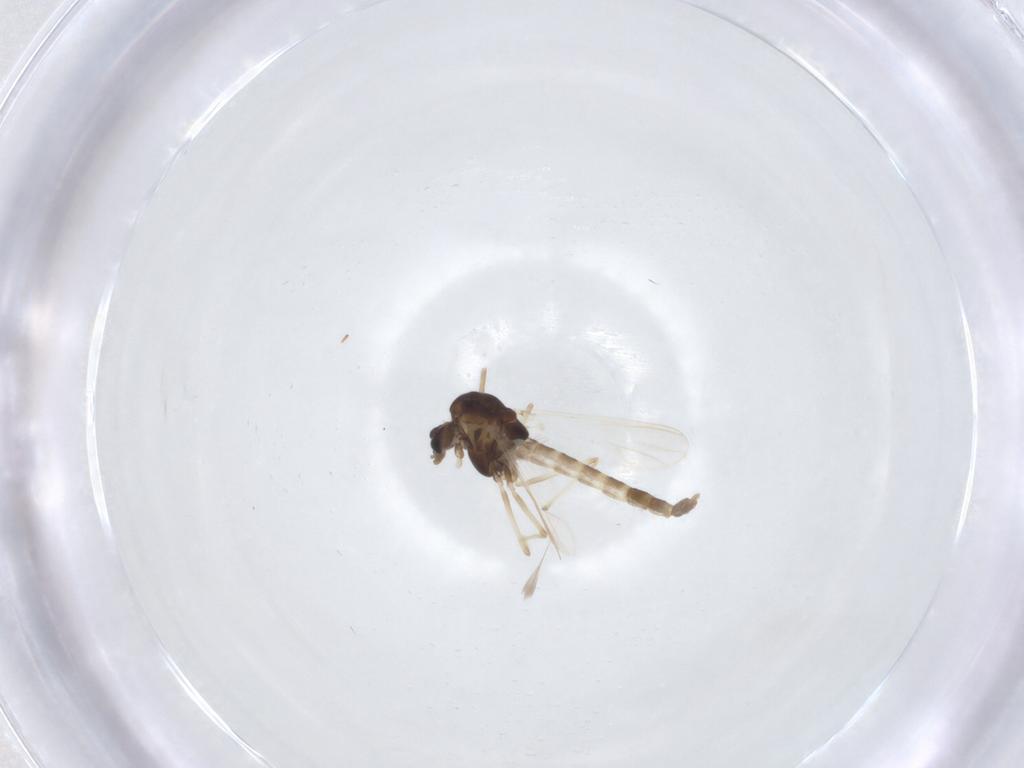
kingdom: Animalia
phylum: Arthropoda
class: Insecta
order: Diptera
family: Chironomidae
